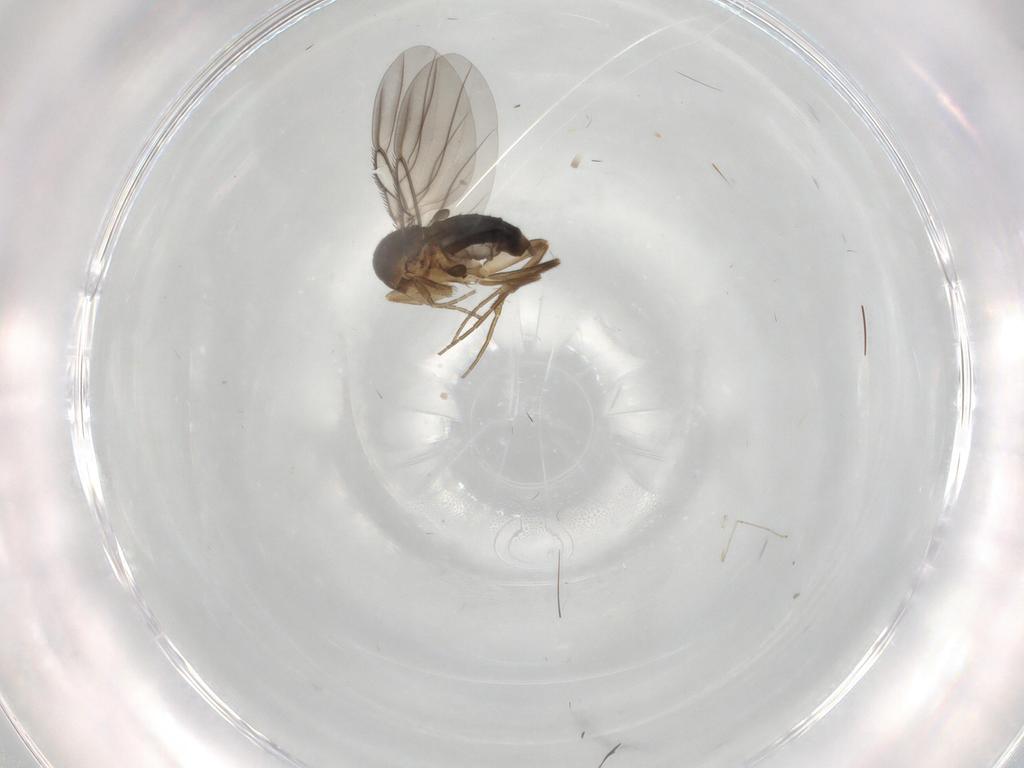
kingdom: Animalia
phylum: Arthropoda
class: Insecta
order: Diptera
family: Phoridae
